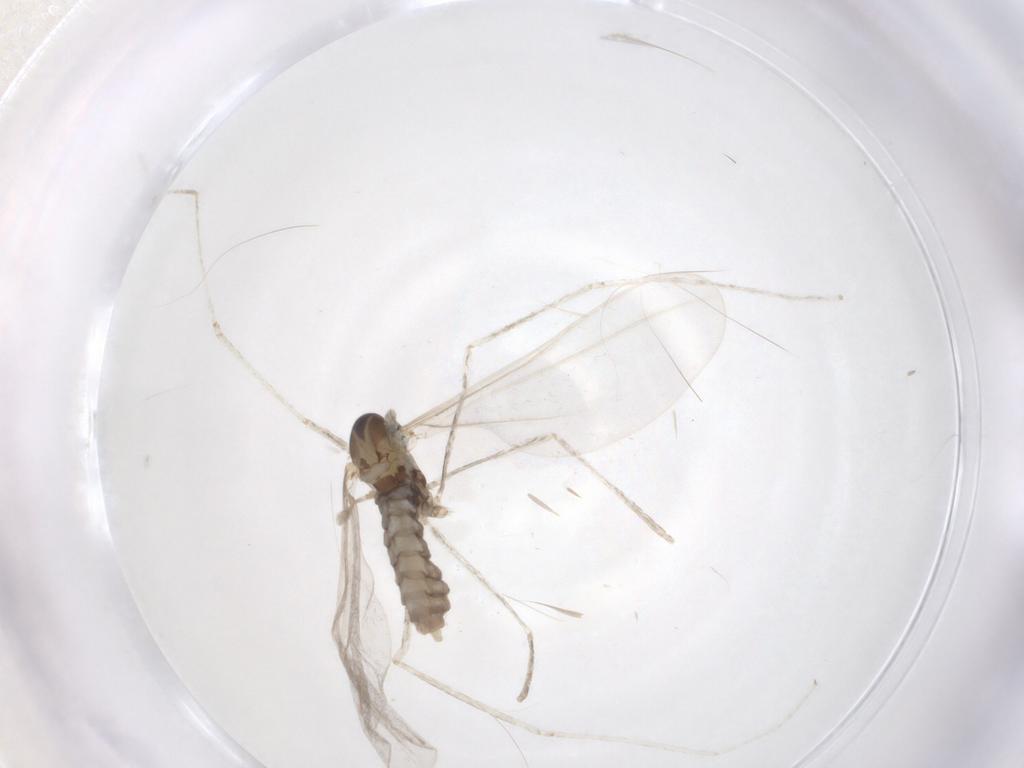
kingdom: Animalia
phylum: Arthropoda
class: Insecta
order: Diptera
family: Cecidomyiidae
